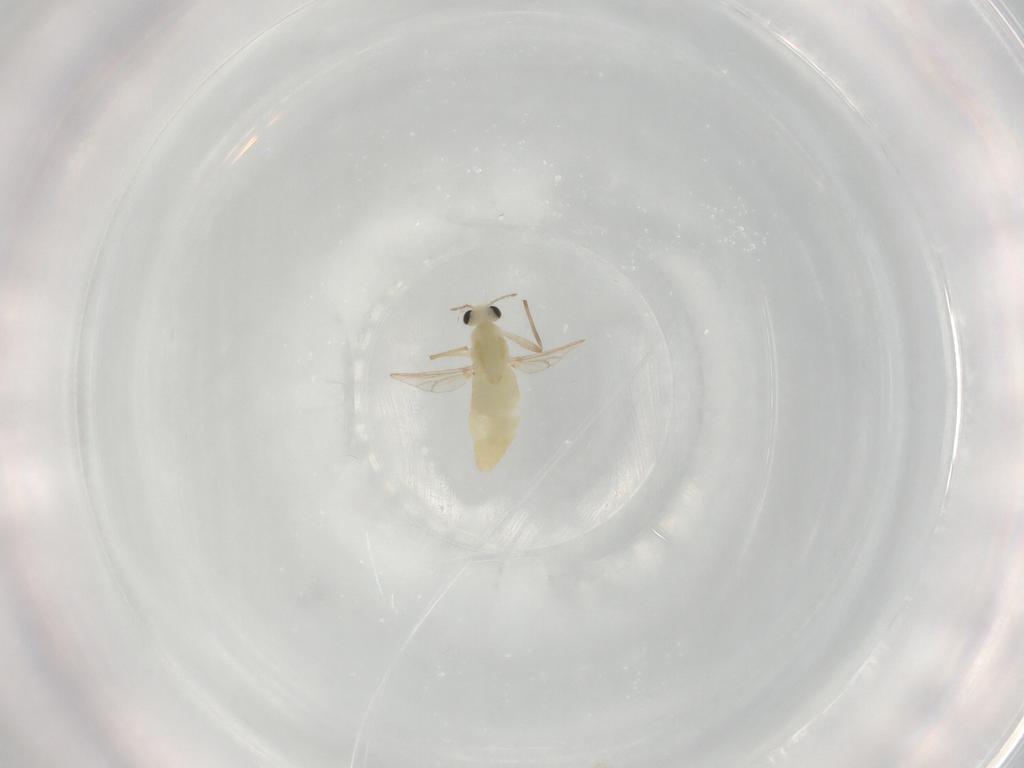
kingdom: Animalia
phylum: Arthropoda
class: Insecta
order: Diptera
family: Chironomidae
